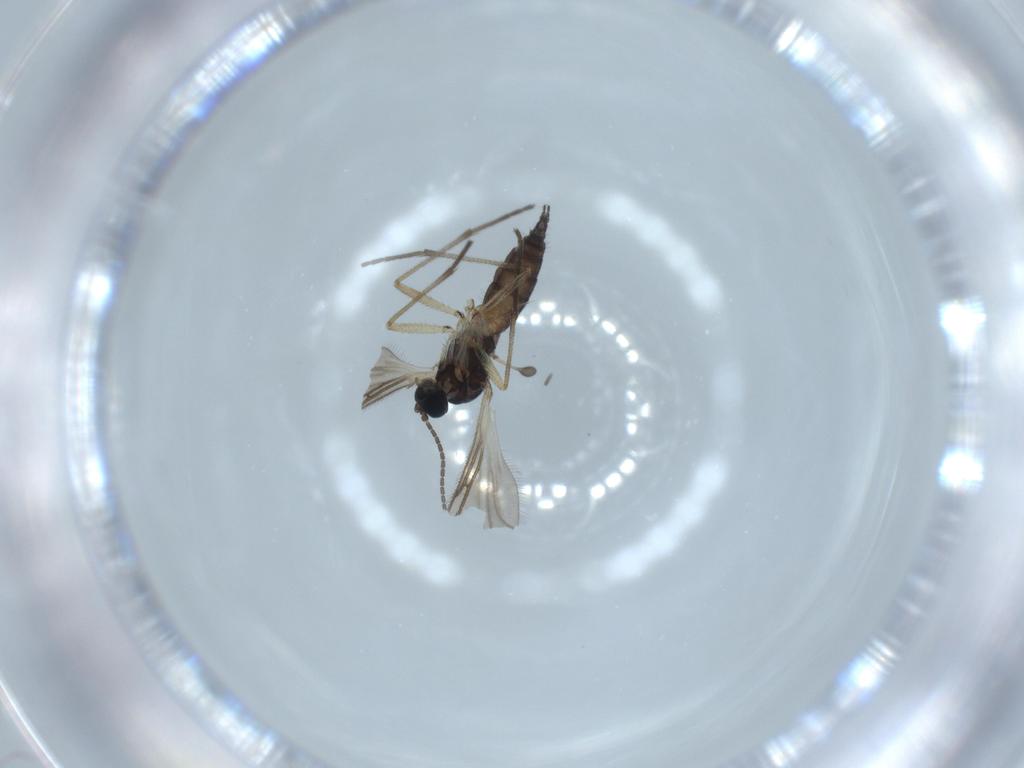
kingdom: Animalia
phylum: Arthropoda
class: Insecta
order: Diptera
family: Sciaridae
